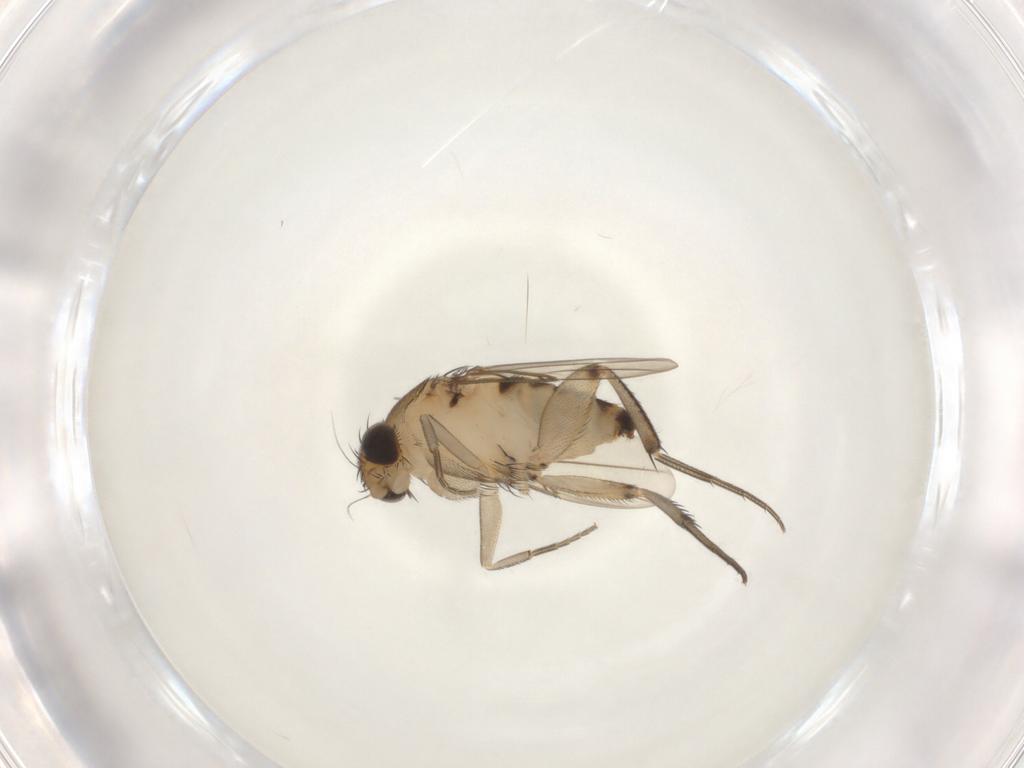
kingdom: Animalia
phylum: Arthropoda
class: Insecta
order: Diptera
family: Phoridae
